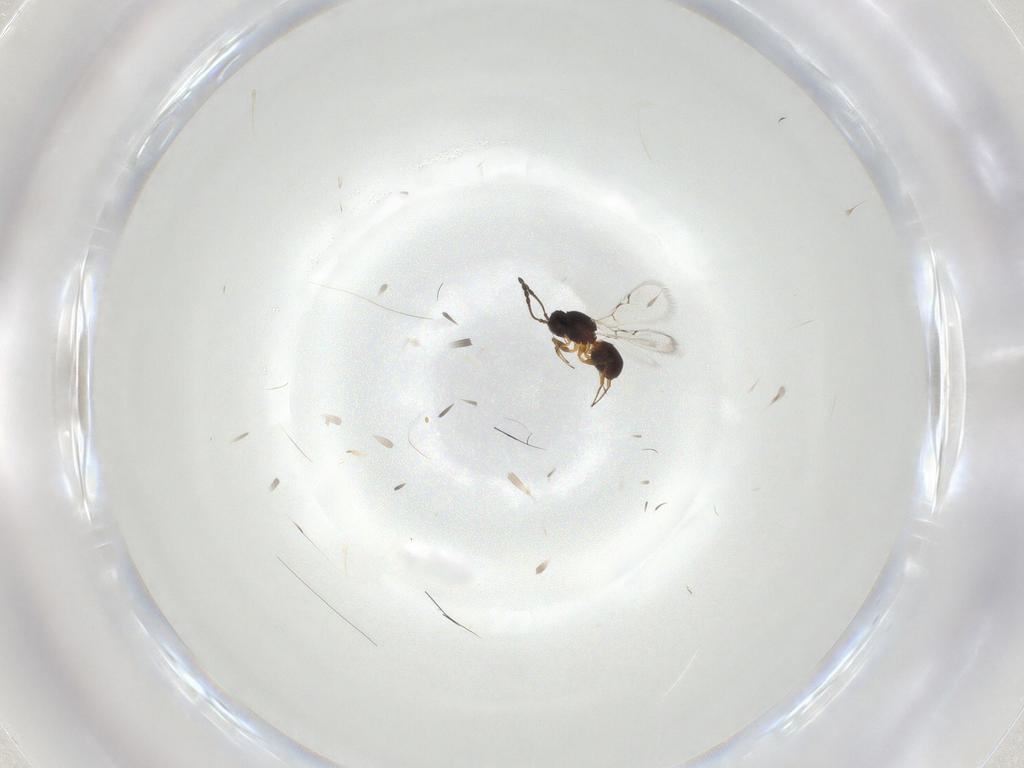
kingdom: Animalia
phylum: Arthropoda
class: Insecta
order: Hymenoptera
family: Figitidae
